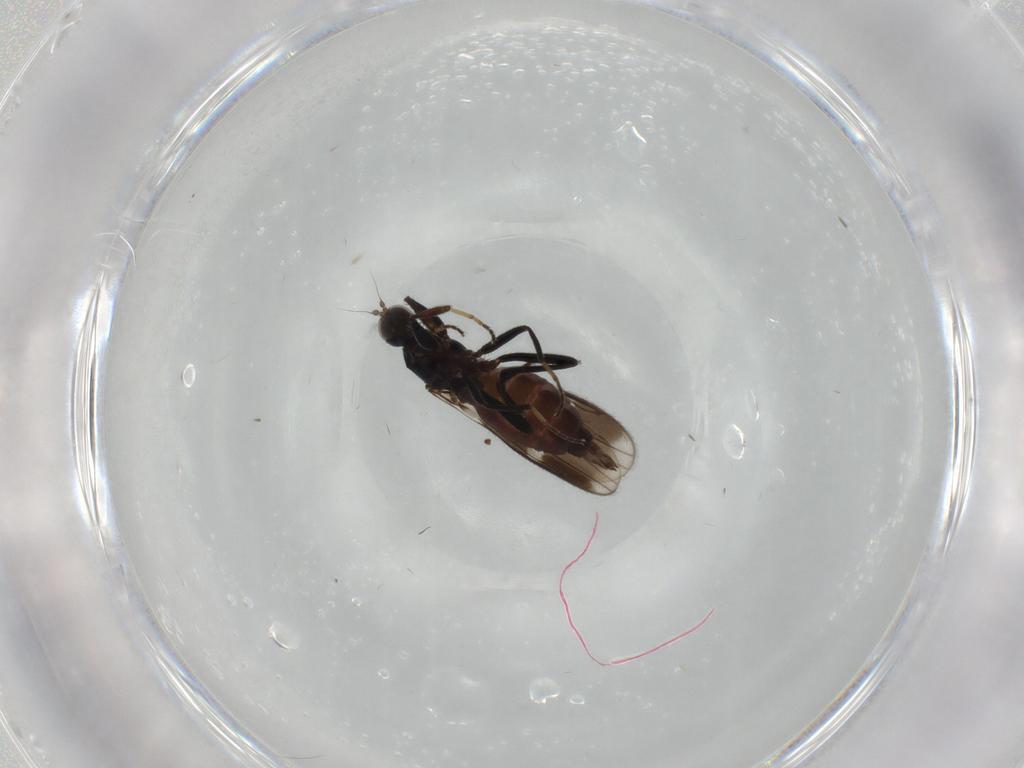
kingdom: Animalia
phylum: Arthropoda
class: Insecta
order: Diptera
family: Hybotidae
